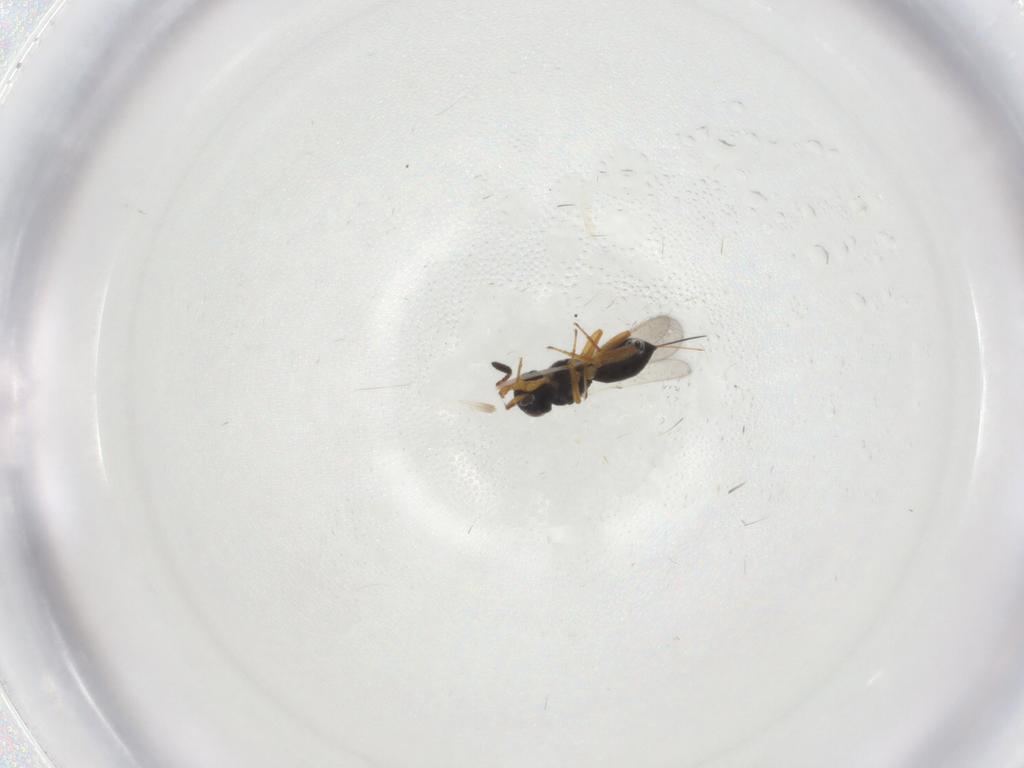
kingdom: Animalia
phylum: Arthropoda
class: Insecta
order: Hymenoptera
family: Scelionidae
